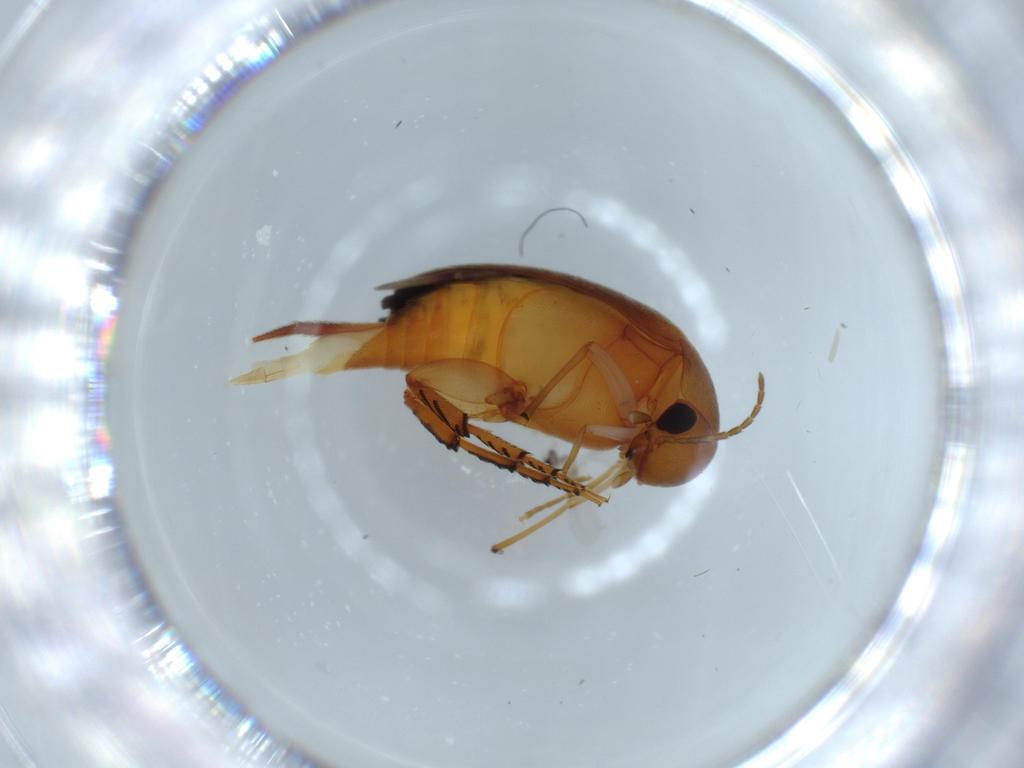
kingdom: Animalia
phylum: Arthropoda
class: Insecta
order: Coleoptera
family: Mordellidae
